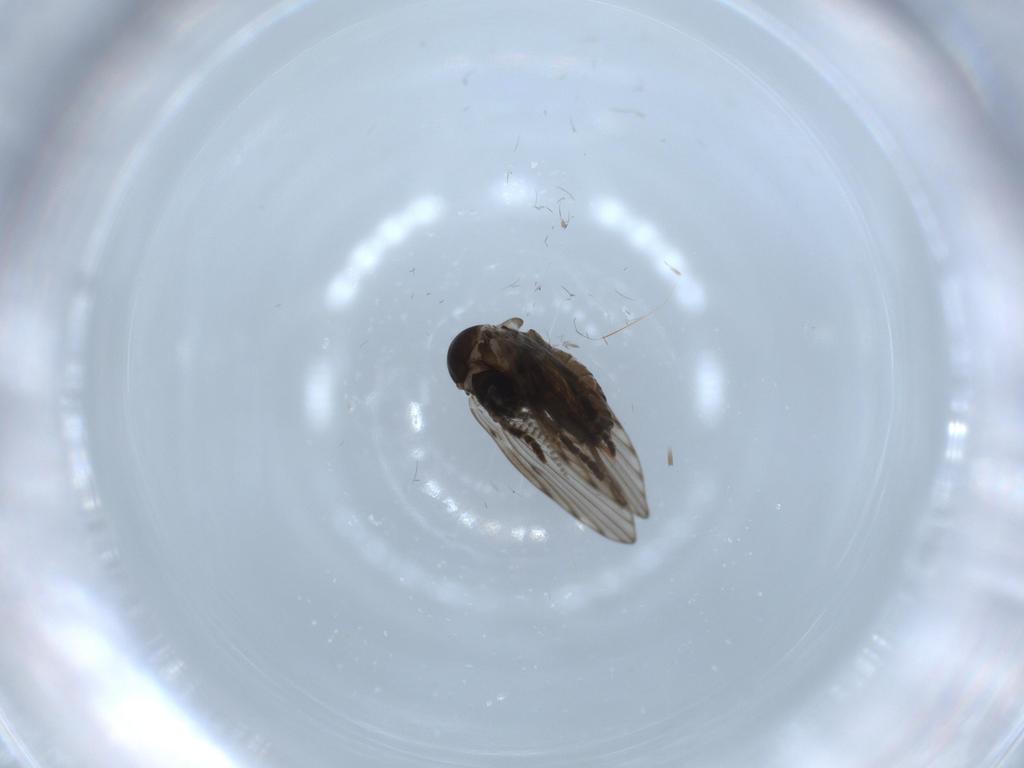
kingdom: Animalia
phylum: Arthropoda
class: Insecta
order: Diptera
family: Psychodidae
